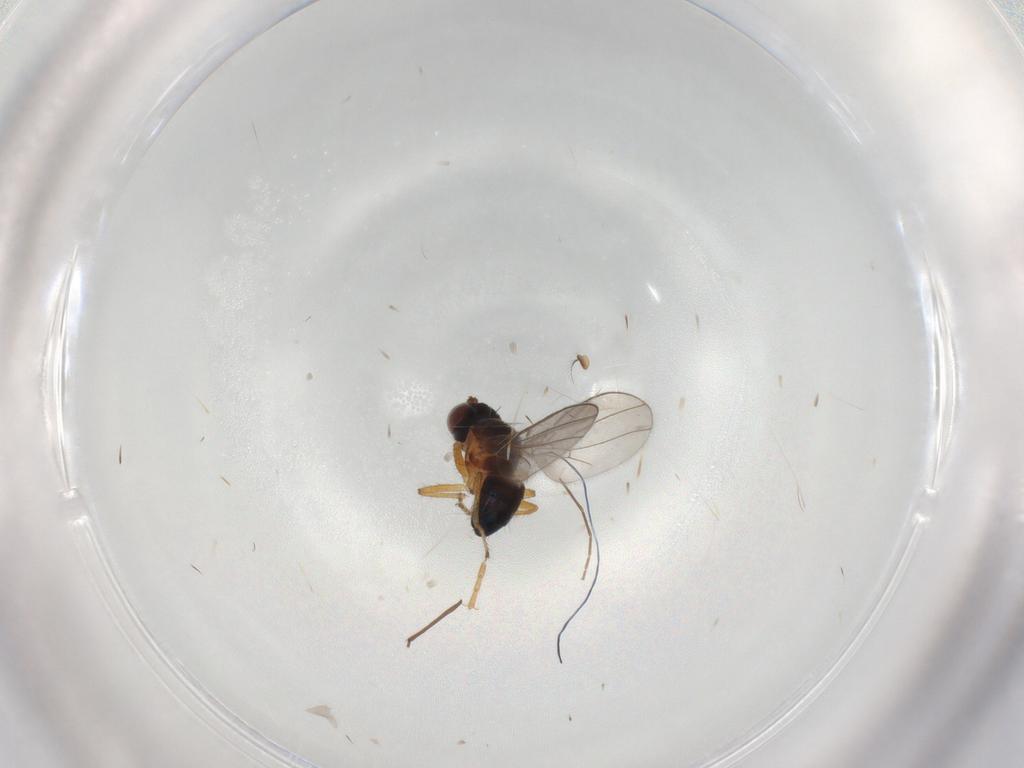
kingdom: Animalia
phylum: Arthropoda
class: Insecta
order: Diptera
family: Ephydridae
